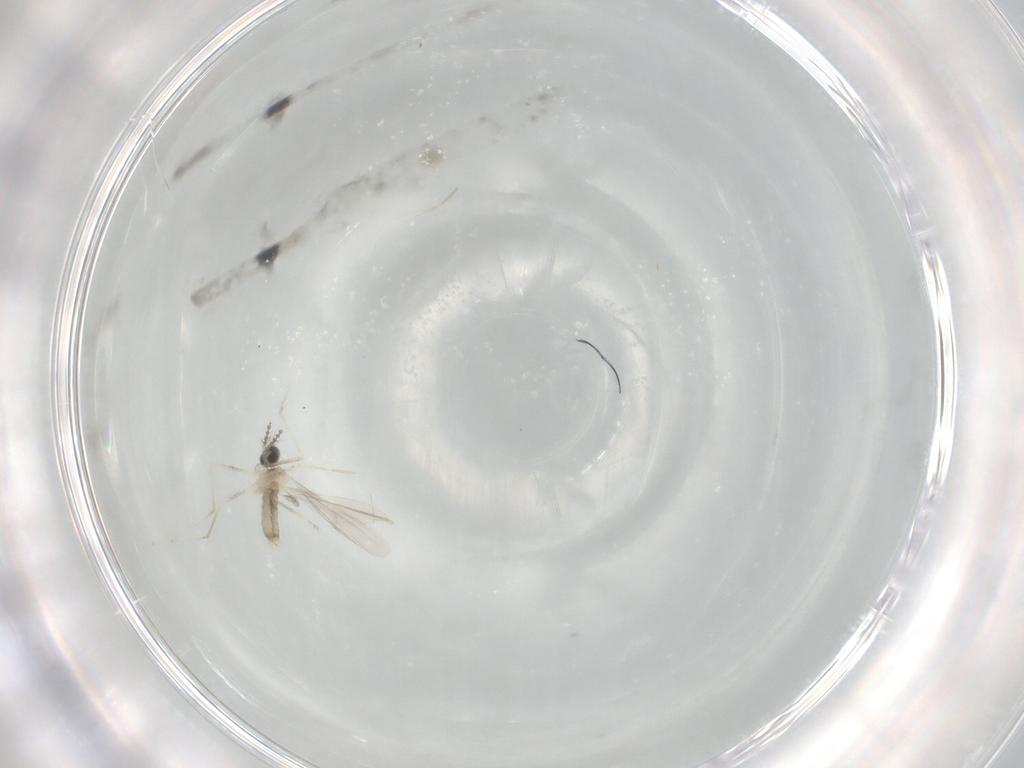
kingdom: Animalia
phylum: Arthropoda
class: Insecta
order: Diptera
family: Cecidomyiidae
